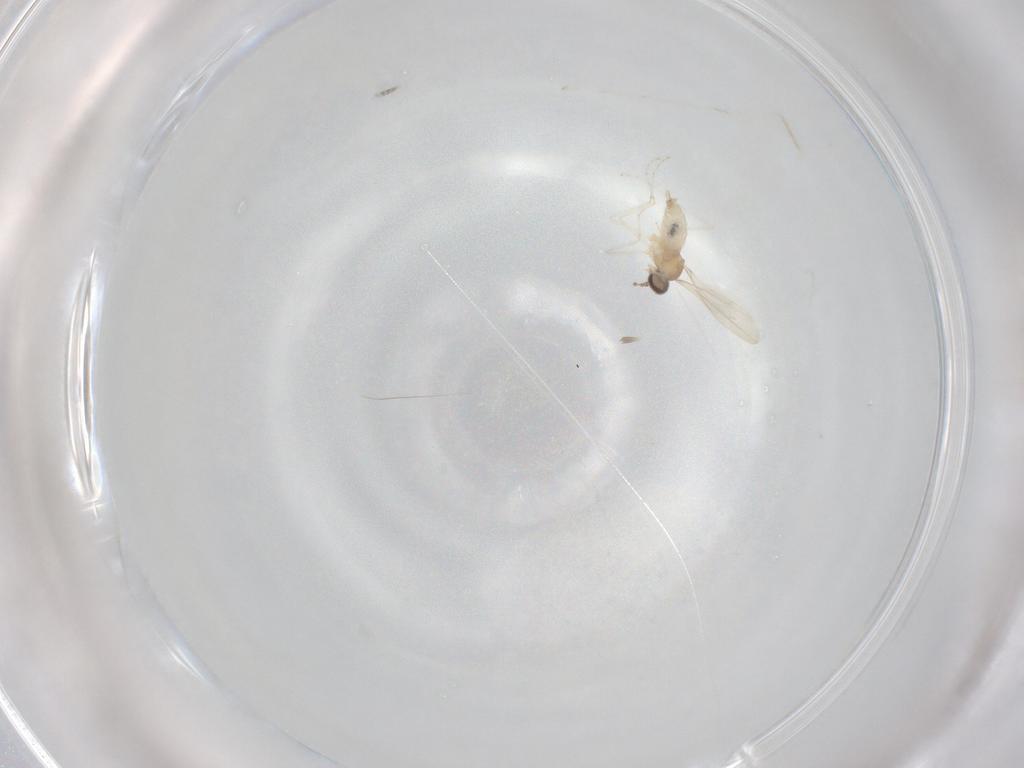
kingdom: Animalia
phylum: Arthropoda
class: Insecta
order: Diptera
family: Cecidomyiidae
